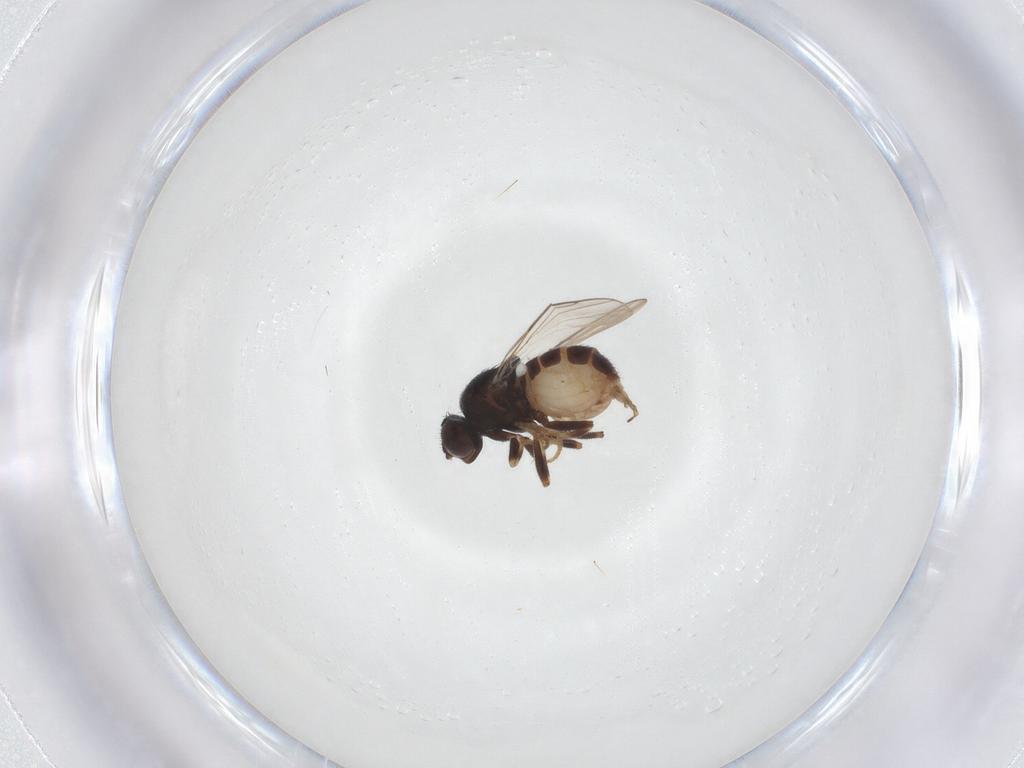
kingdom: Animalia
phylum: Arthropoda
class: Insecta
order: Diptera
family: Chloropidae
